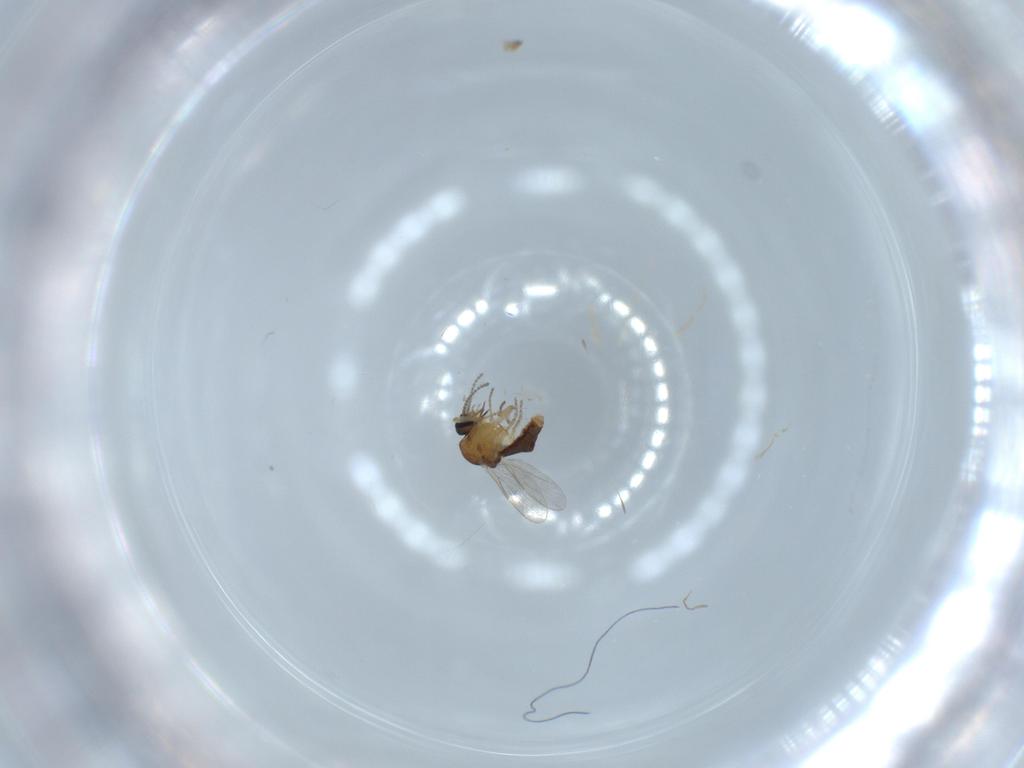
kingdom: Animalia
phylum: Arthropoda
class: Insecta
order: Diptera
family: Ceratopogonidae
